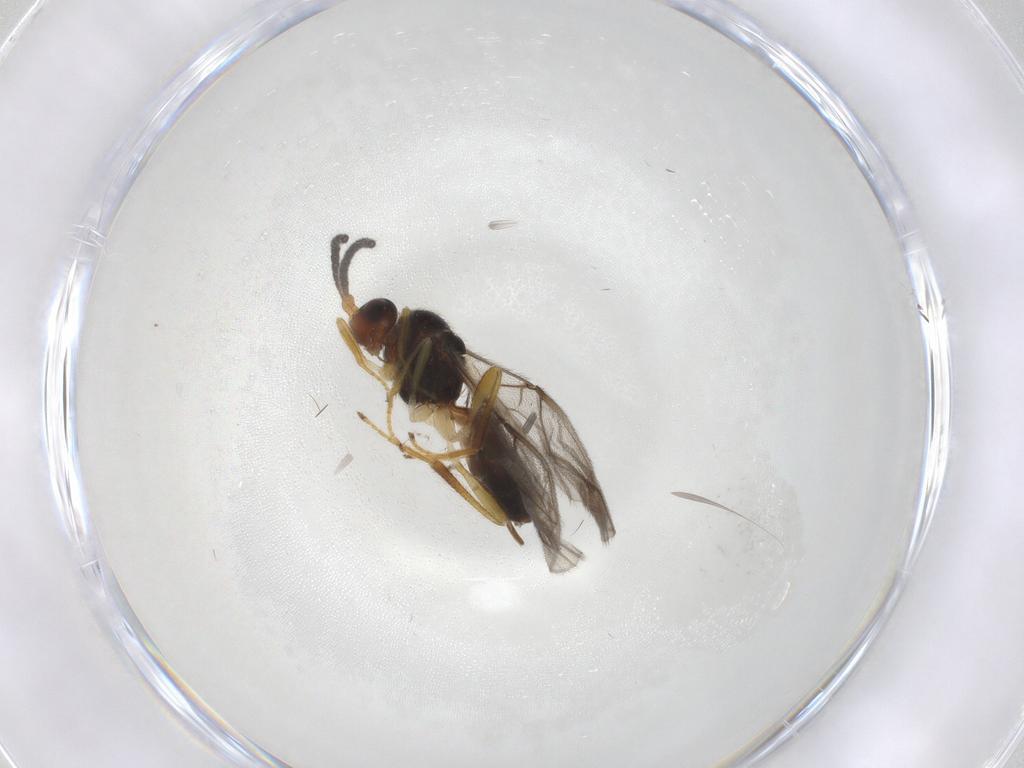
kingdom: Animalia
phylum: Arthropoda
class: Insecta
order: Hymenoptera
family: Braconidae
